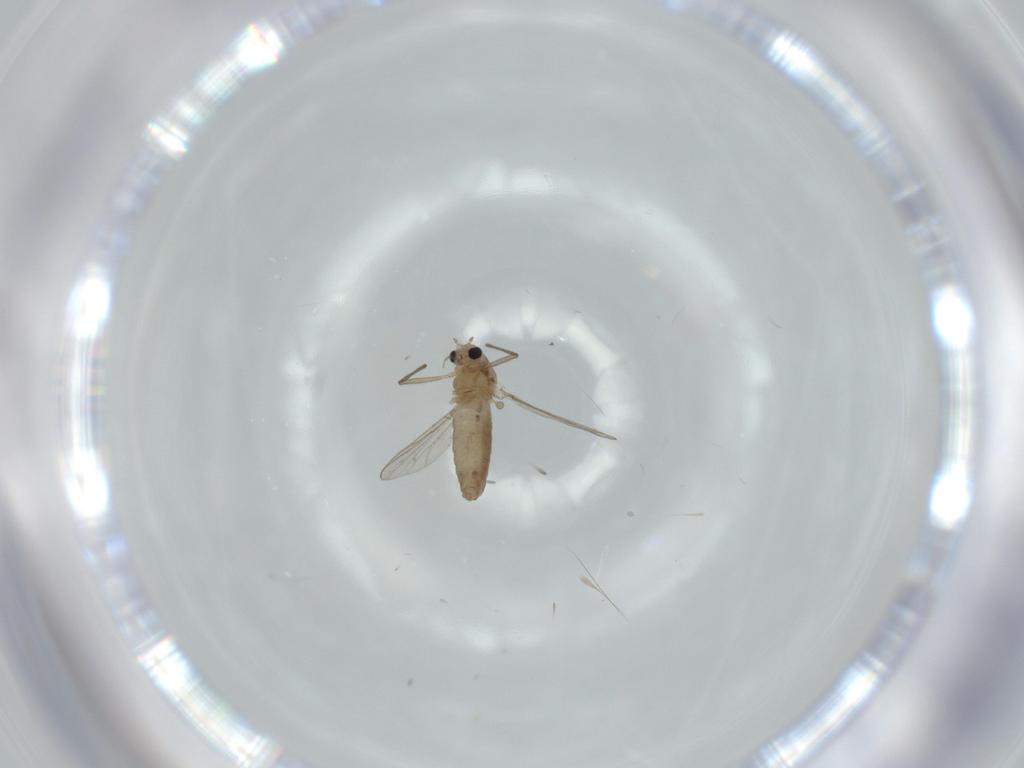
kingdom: Animalia
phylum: Arthropoda
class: Insecta
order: Diptera
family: Chironomidae
